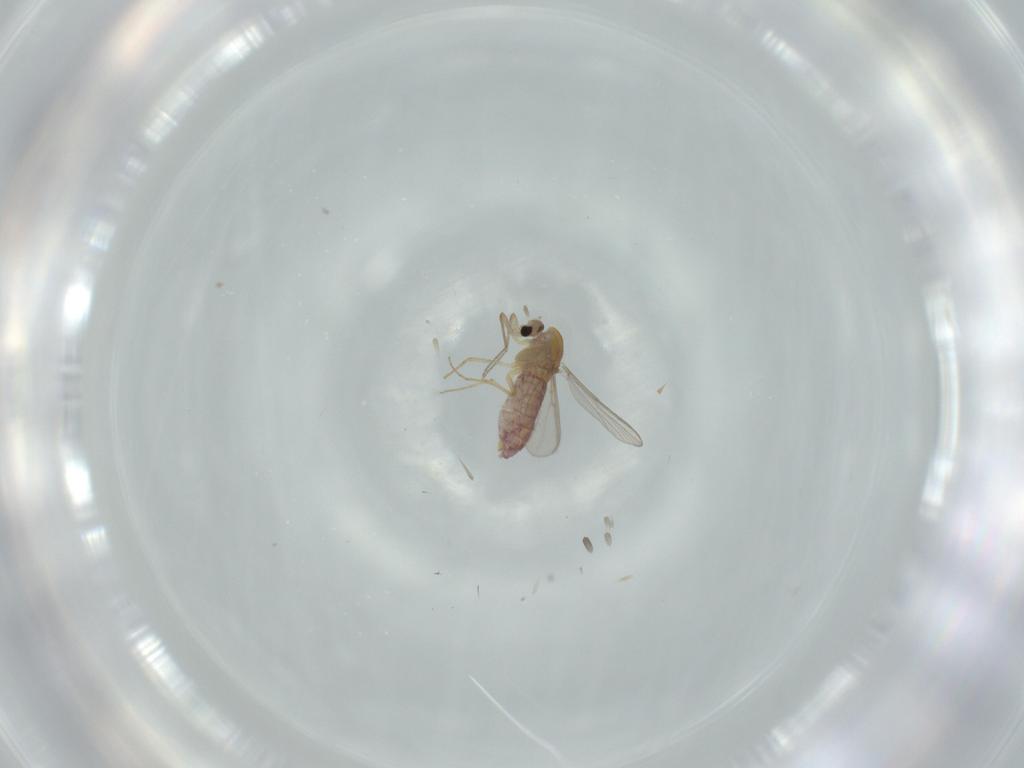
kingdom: Animalia
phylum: Arthropoda
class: Insecta
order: Diptera
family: Chironomidae
